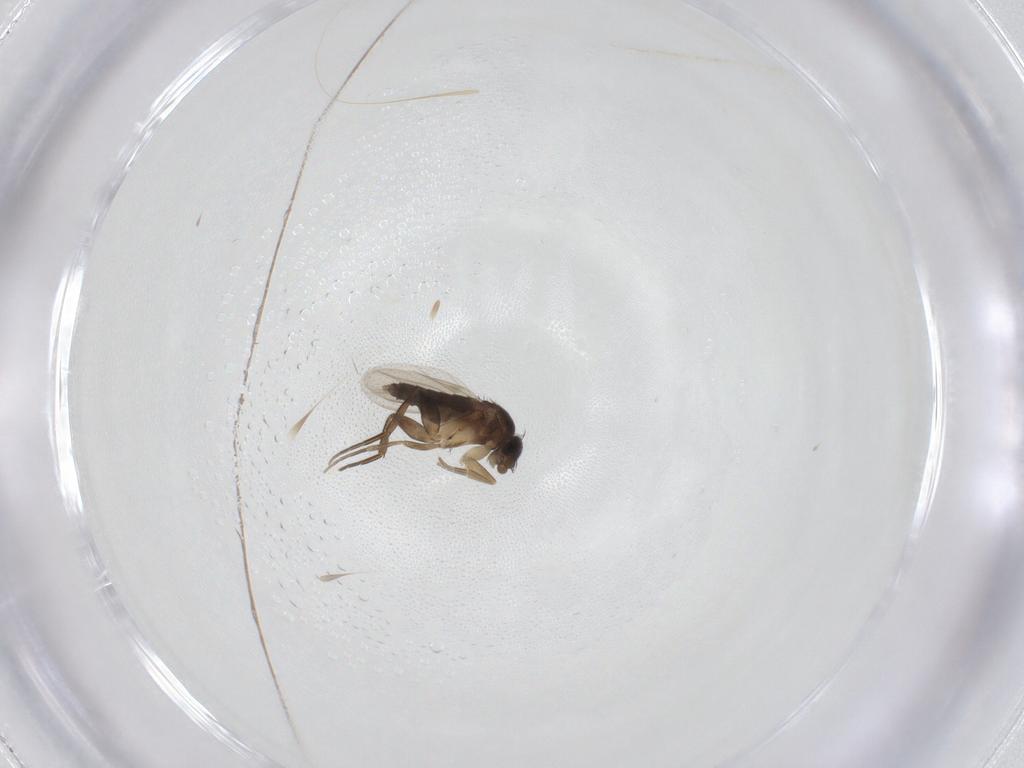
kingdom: Animalia
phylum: Arthropoda
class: Insecta
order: Diptera
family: Phoridae
